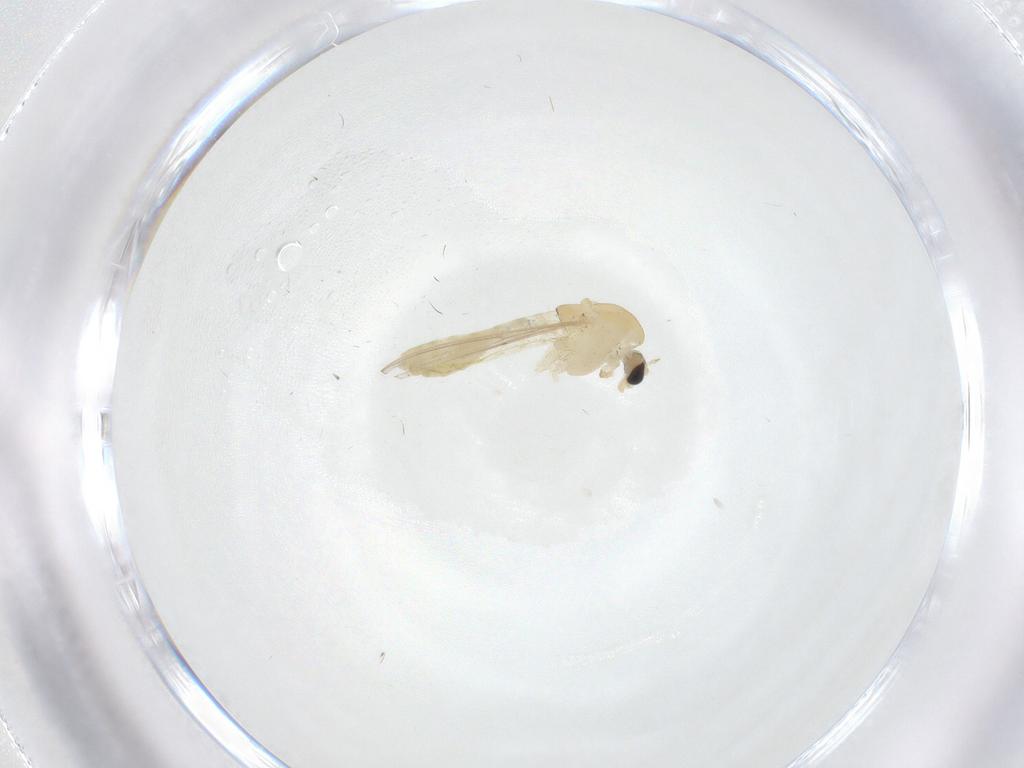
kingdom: Animalia
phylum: Arthropoda
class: Insecta
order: Diptera
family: Chironomidae
